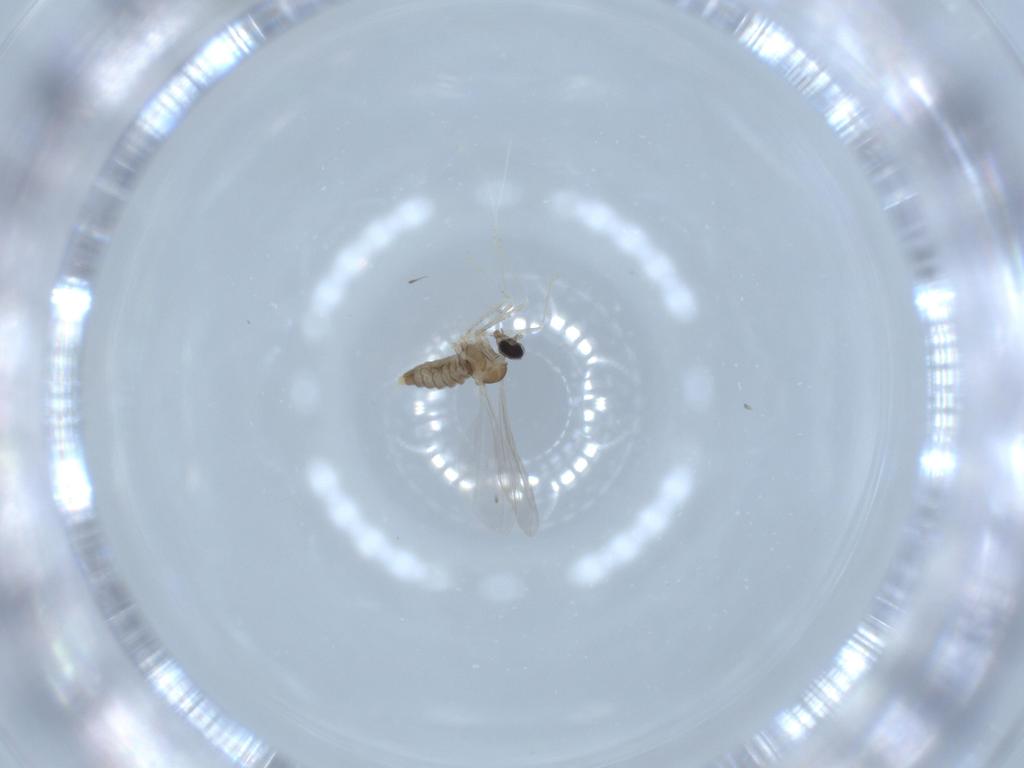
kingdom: Animalia
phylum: Arthropoda
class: Insecta
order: Diptera
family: Cecidomyiidae
